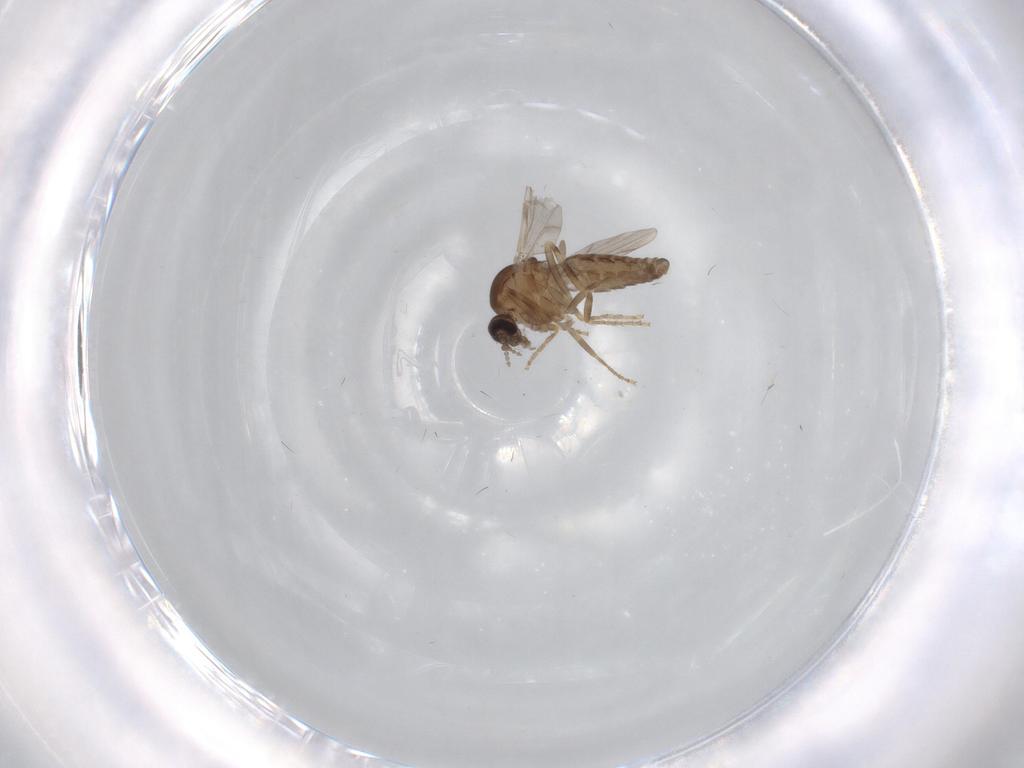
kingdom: Animalia
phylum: Arthropoda
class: Insecta
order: Diptera
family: Ceratopogonidae
